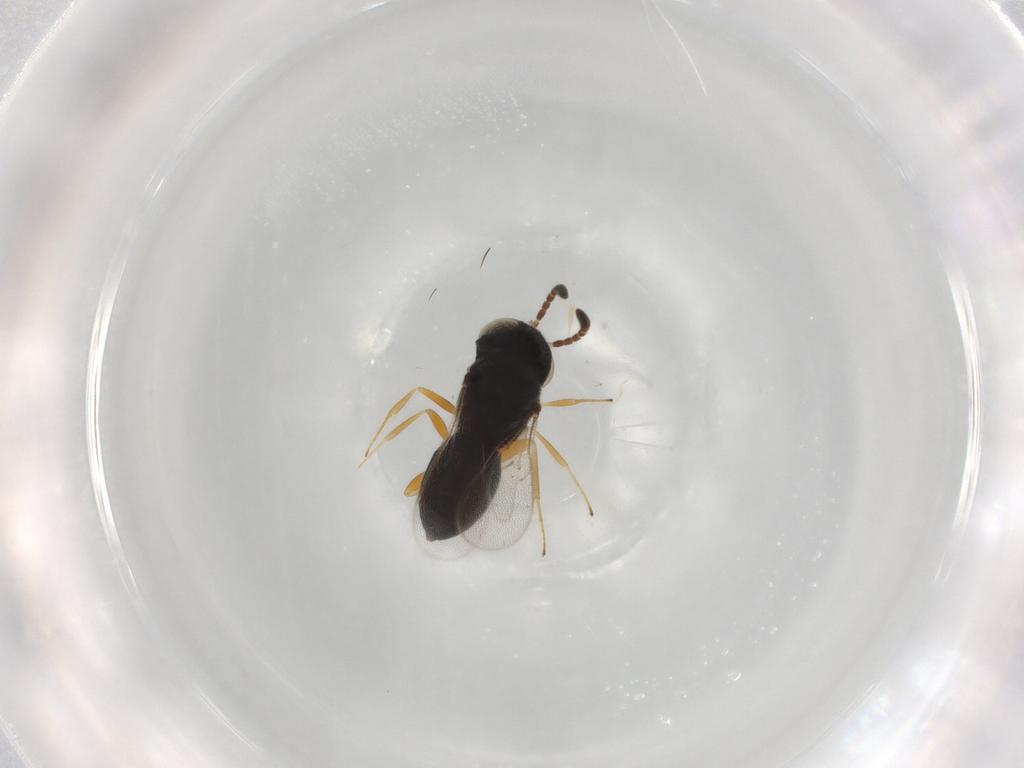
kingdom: Animalia
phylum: Arthropoda
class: Insecta
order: Hymenoptera
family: Scelionidae
